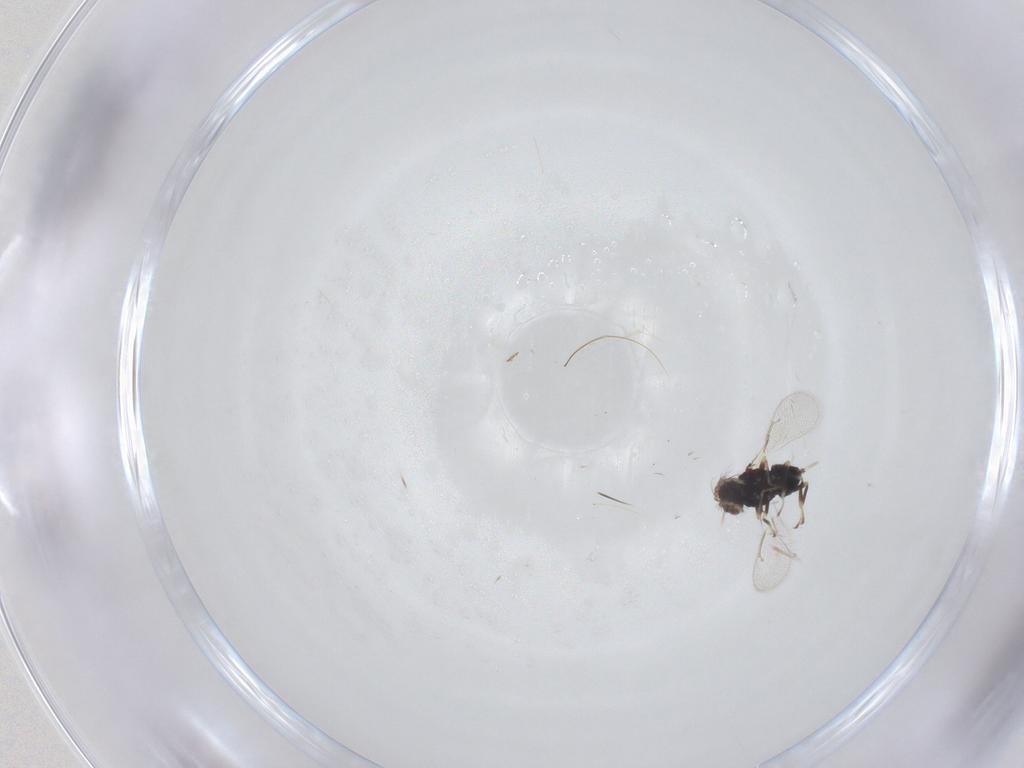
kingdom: Animalia
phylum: Arthropoda
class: Insecta
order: Hymenoptera
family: Eulophidae
